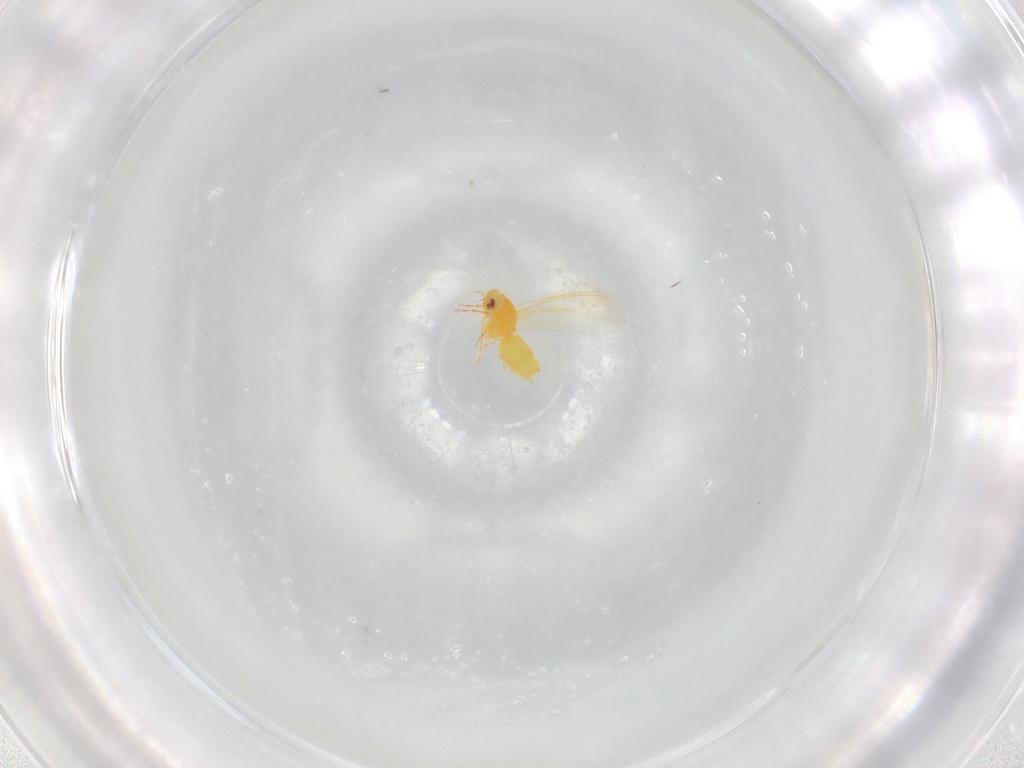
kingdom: Animalia
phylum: Arthropoda
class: Insecta
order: Hemiptera
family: Aleyrodidae
